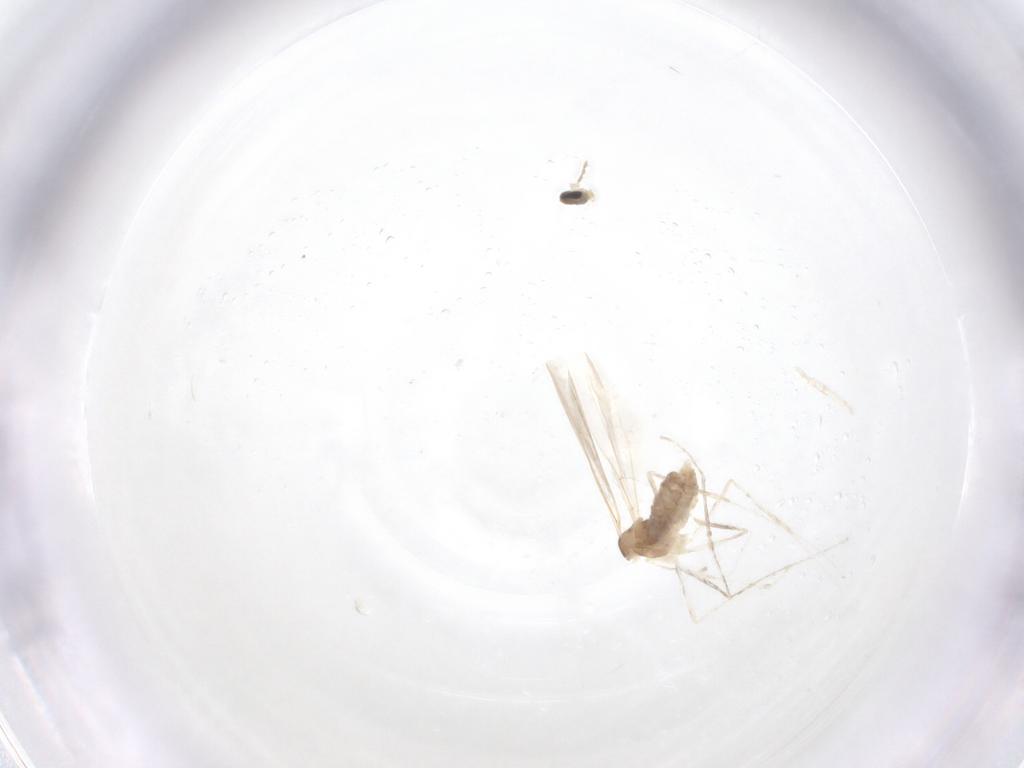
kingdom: Animalia
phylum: Arthropoda
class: Insecta
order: Diptera
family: Cecidomyiidae
